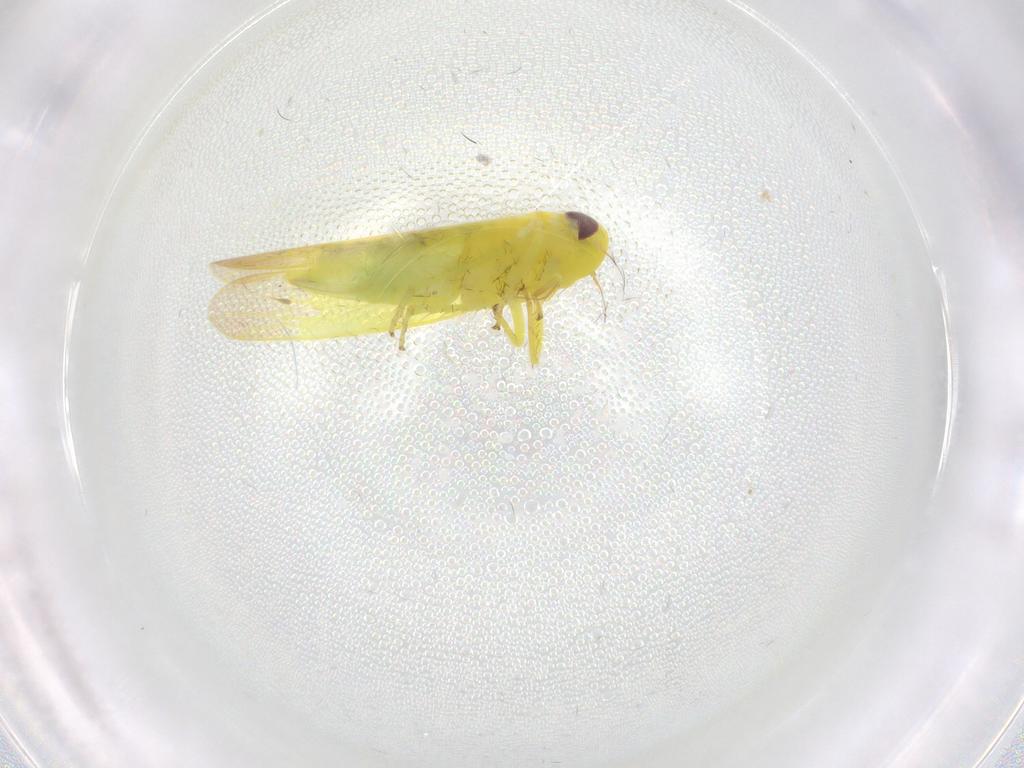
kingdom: Animalia
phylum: Arthropoda
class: Insecta
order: Hemiptera
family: Cicadellidae
